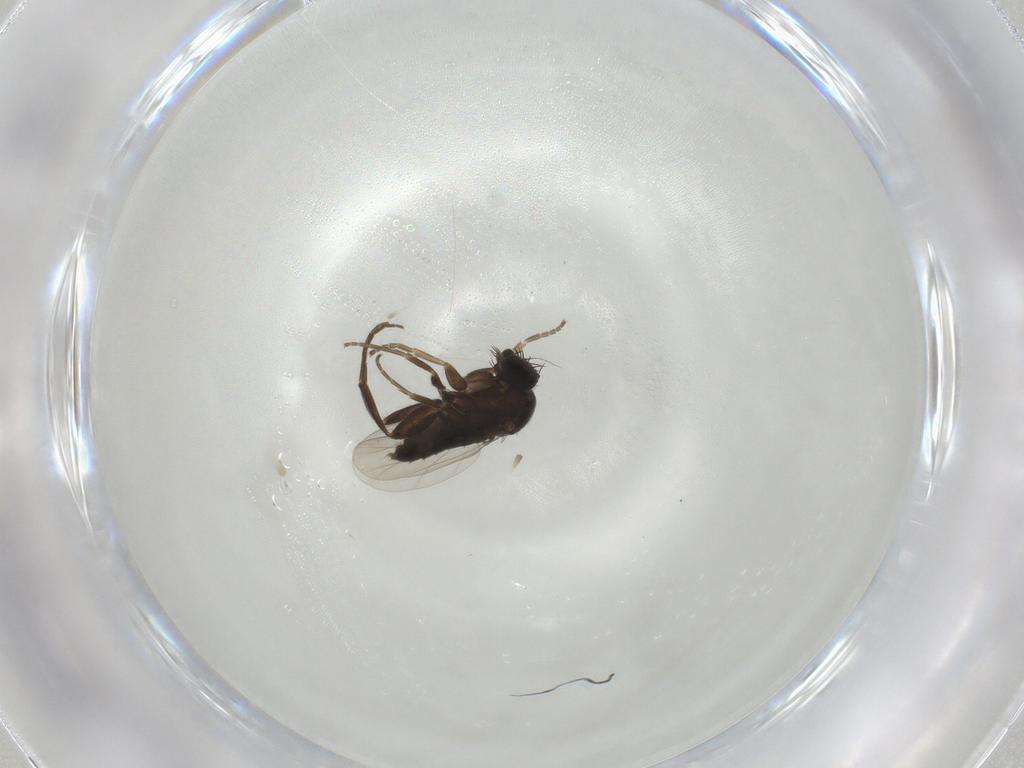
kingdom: Animalia
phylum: Arthropoda
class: Insecta
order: Diptera
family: Phoridae
